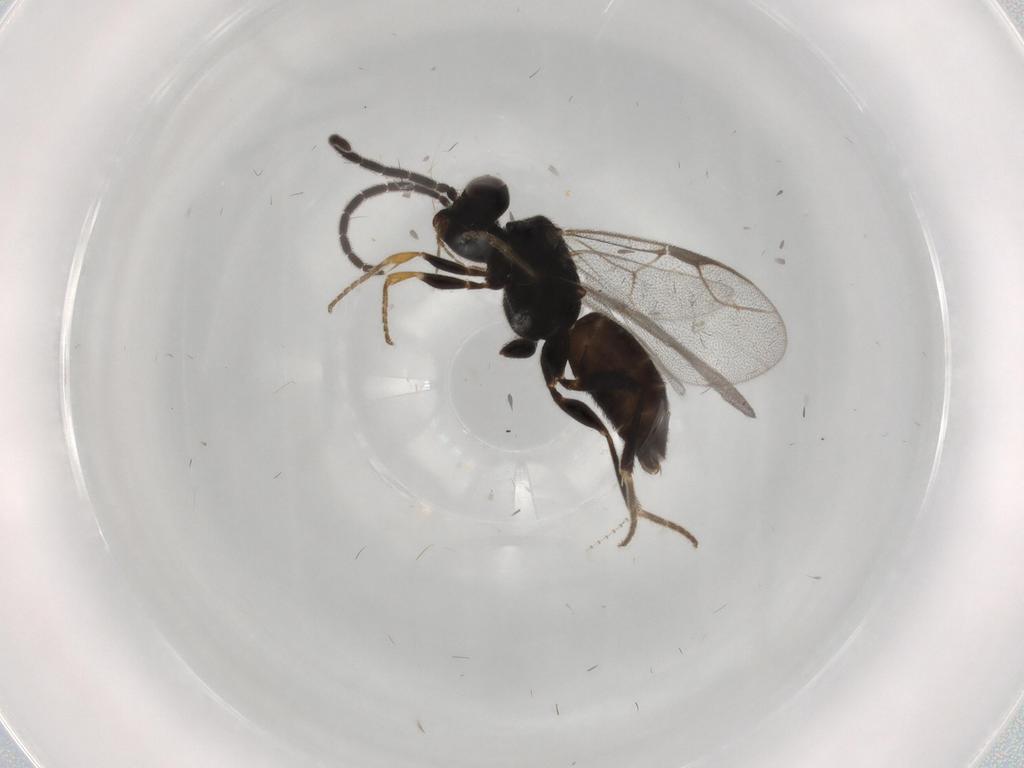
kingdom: Animalia
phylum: Arthropoda
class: Insecta
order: Hymenoptera
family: Dryinidae
